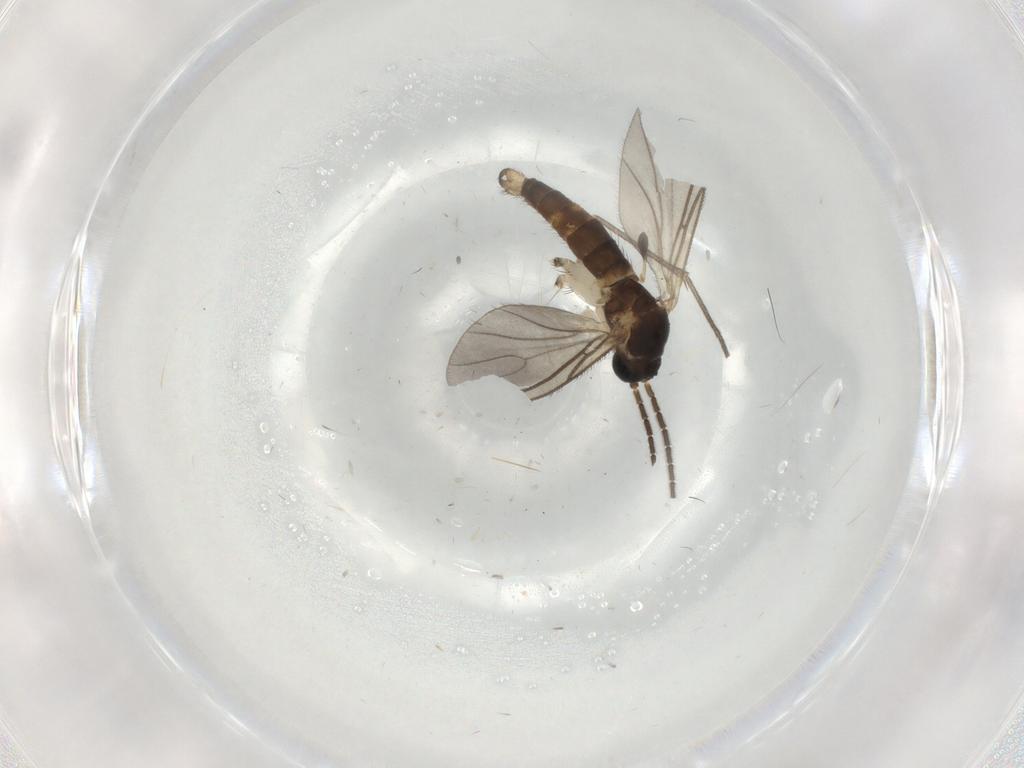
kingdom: Animalia
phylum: Arthropoda
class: Insecta
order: Diptera
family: Sciaridae
